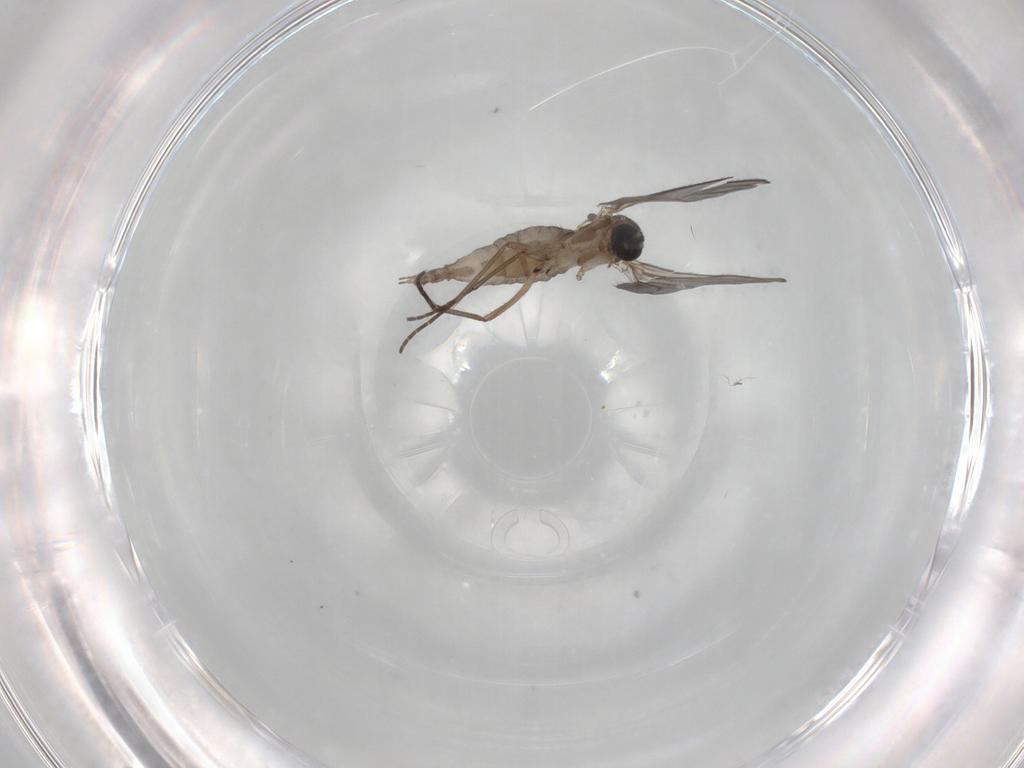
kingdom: Animalia
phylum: Arthropoda
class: Insecta
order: Diptera
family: Sciaridae
